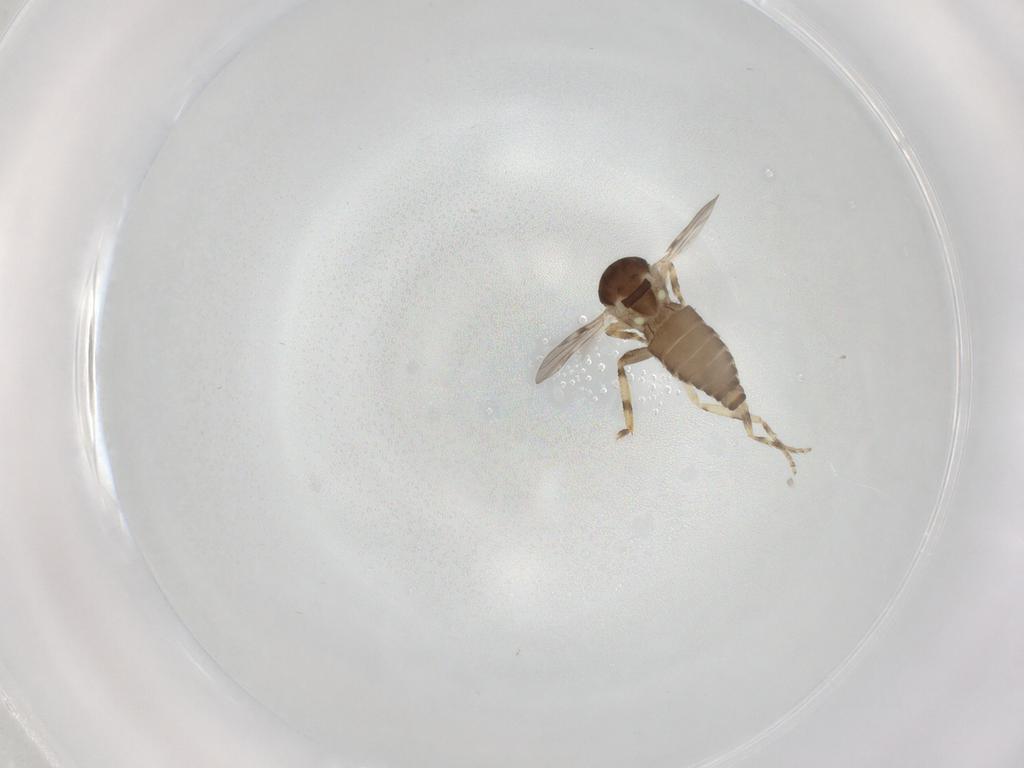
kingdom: Animalia
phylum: Arthropoda
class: Insecta
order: Diptera
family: Ceratopogonidae
